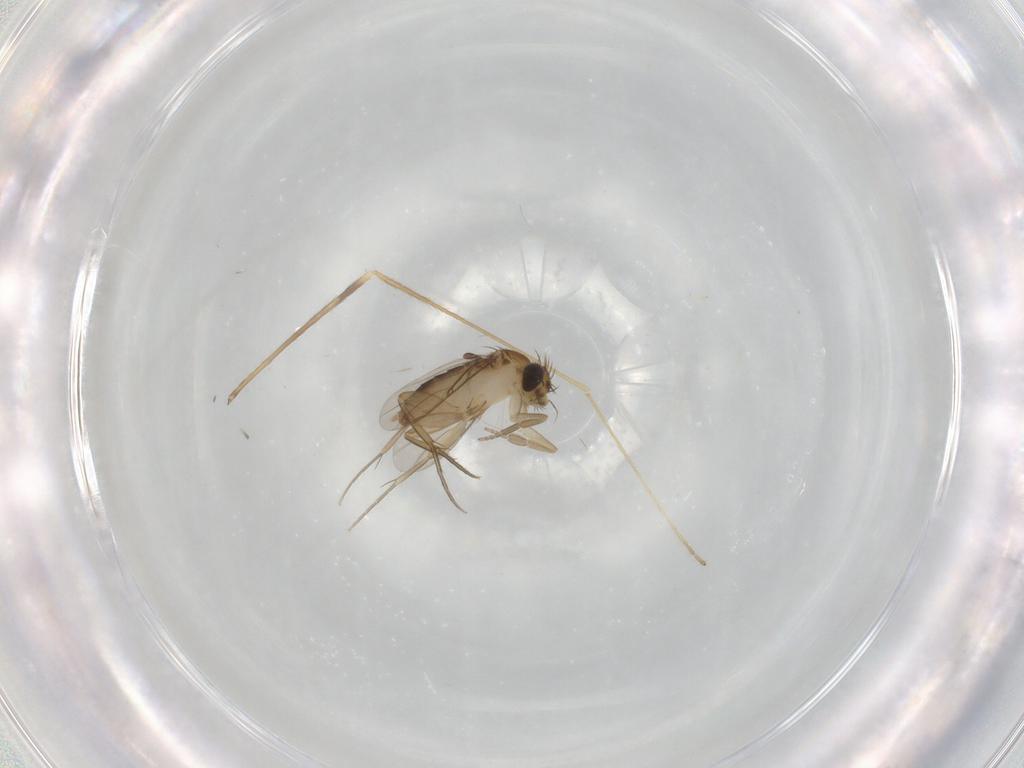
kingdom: Animalia
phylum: Arthropoda
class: Insecta
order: Diptera
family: Phoridae
